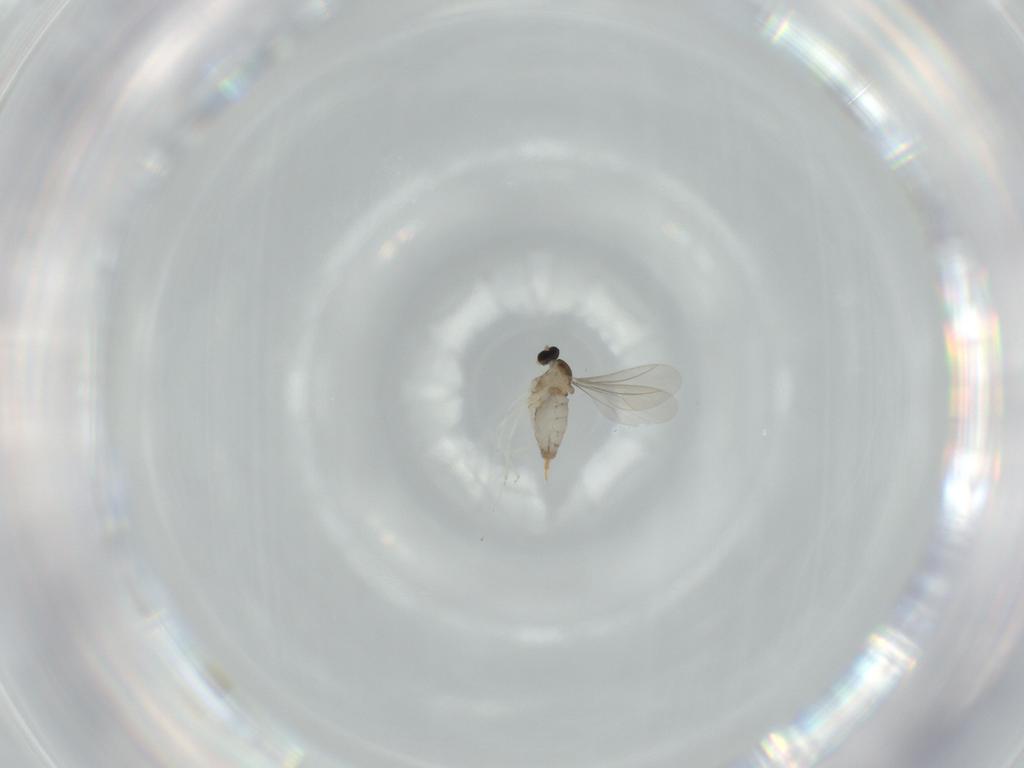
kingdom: Animalia
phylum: Arthropoda
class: Insecta
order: Diptera
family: Cecidomyiidae
